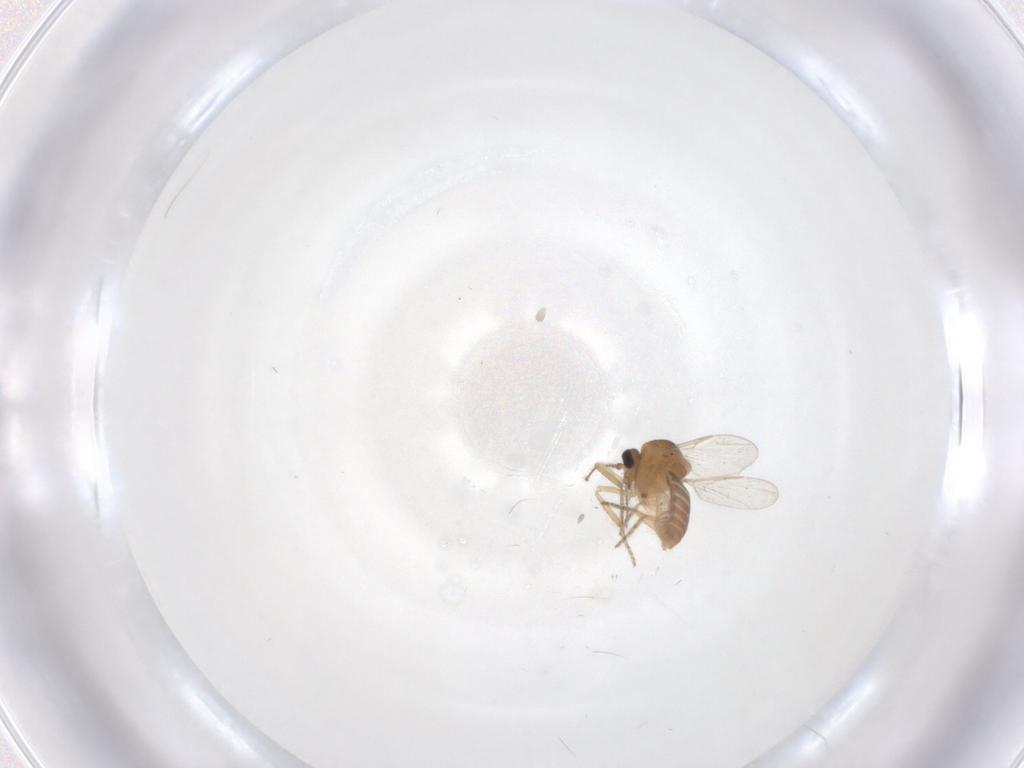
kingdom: Animalia
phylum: Arthropoda
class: Insecta
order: Diptera
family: Ceratopogonidae
